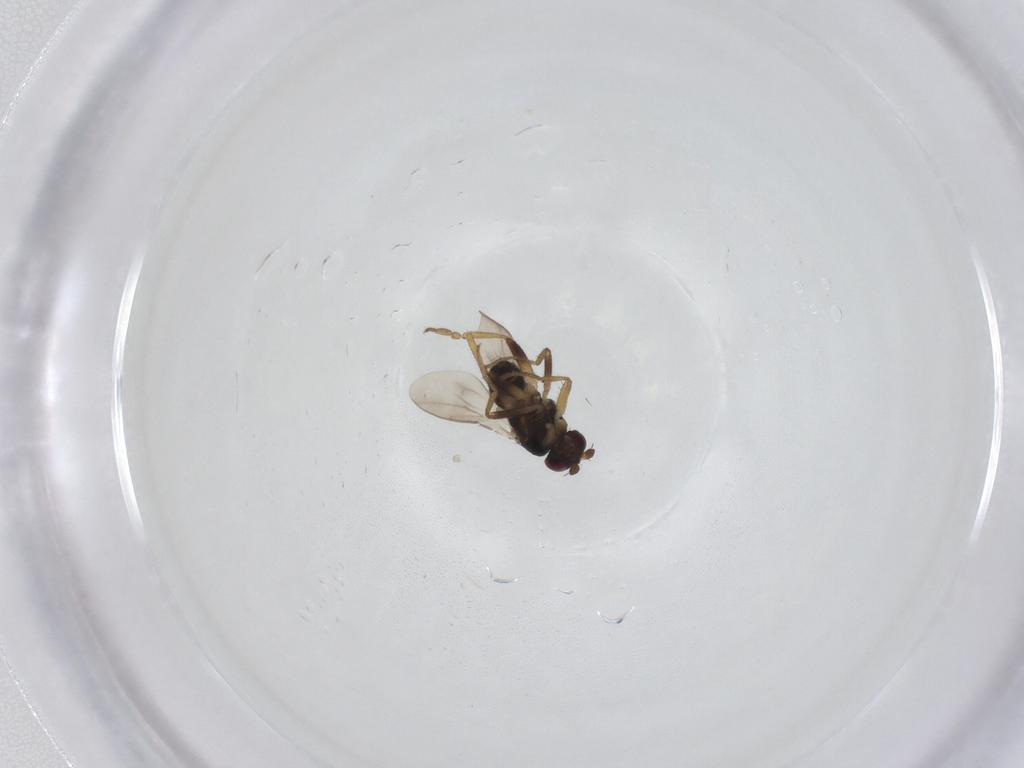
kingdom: Animalia
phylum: Arthropoda
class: Insecta
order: Diptera
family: Sphaeroceridae
